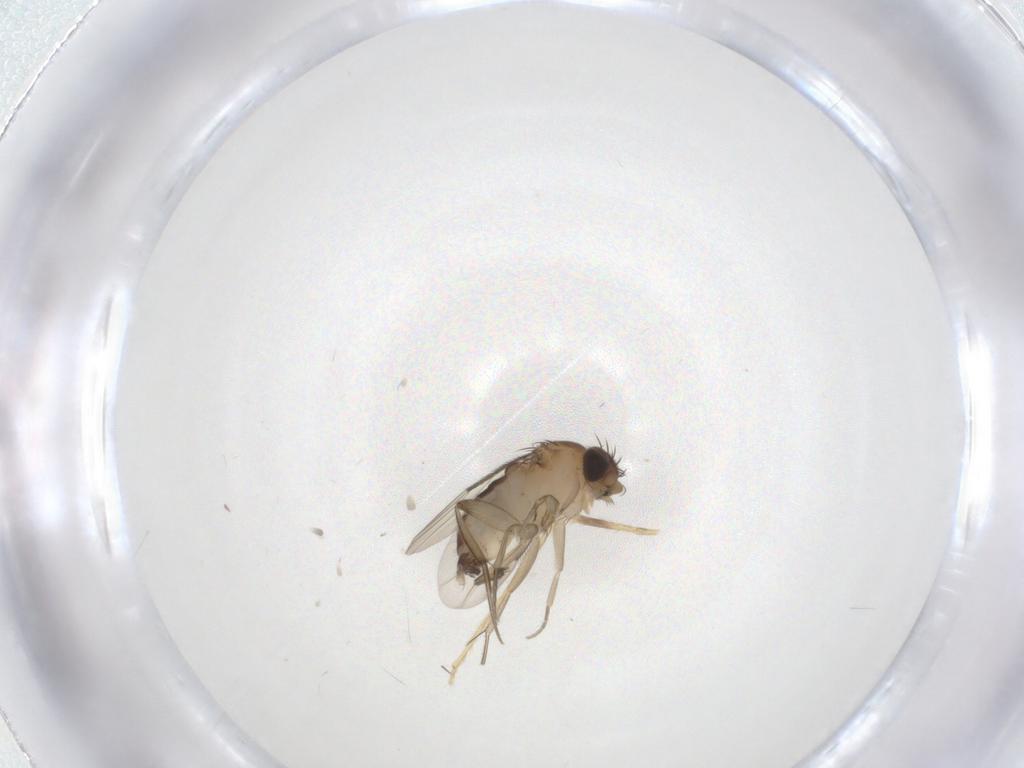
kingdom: Animalia
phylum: Arthropoda
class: Insecta
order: Diptera
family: Phoridae
